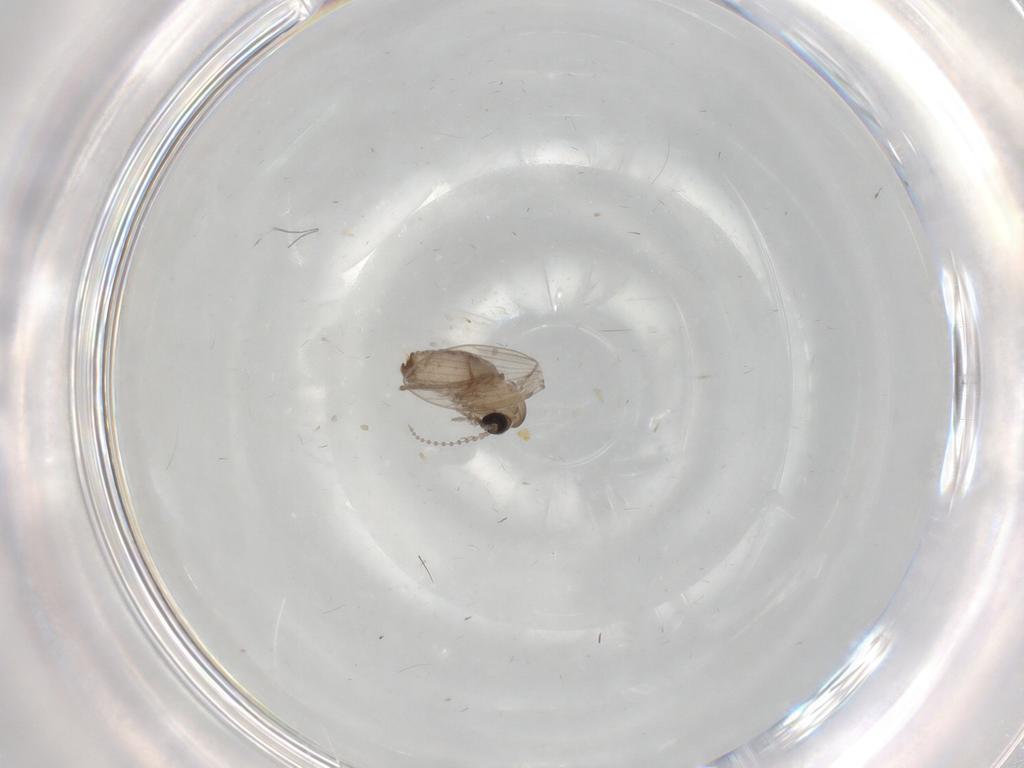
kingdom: Animalia
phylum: Arthropoda
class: Insecta
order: Diptera
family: Psychodidae
